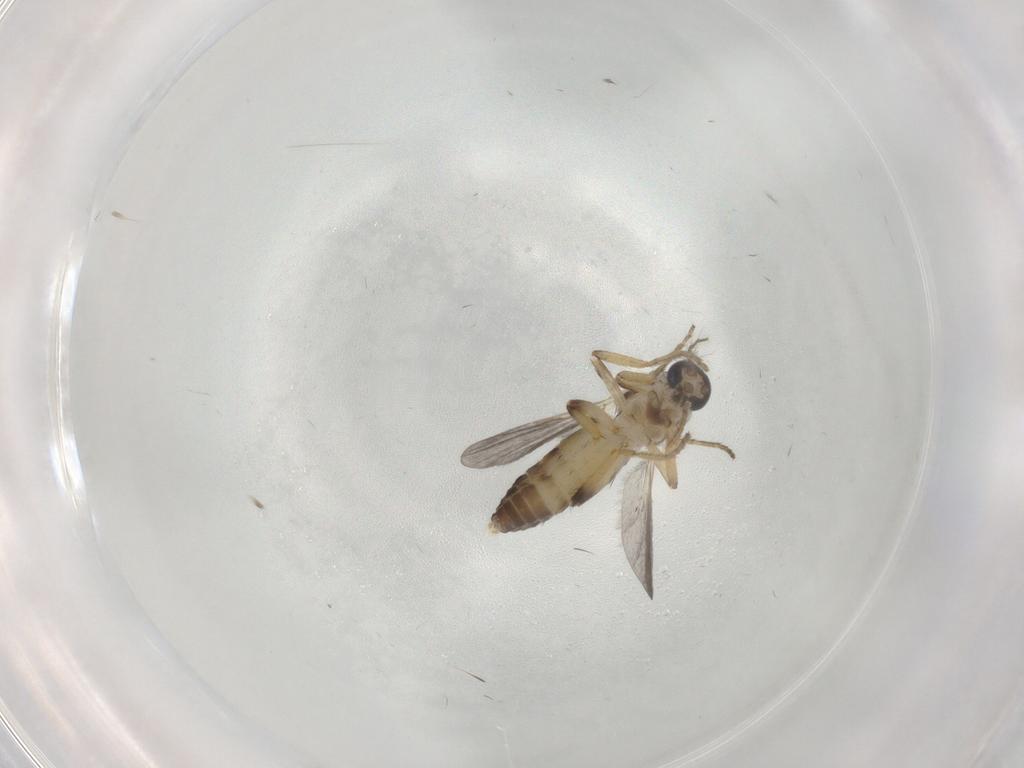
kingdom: Animalia
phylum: Arthropoda
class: Insecta
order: Diptera
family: Ceratopogonidae
